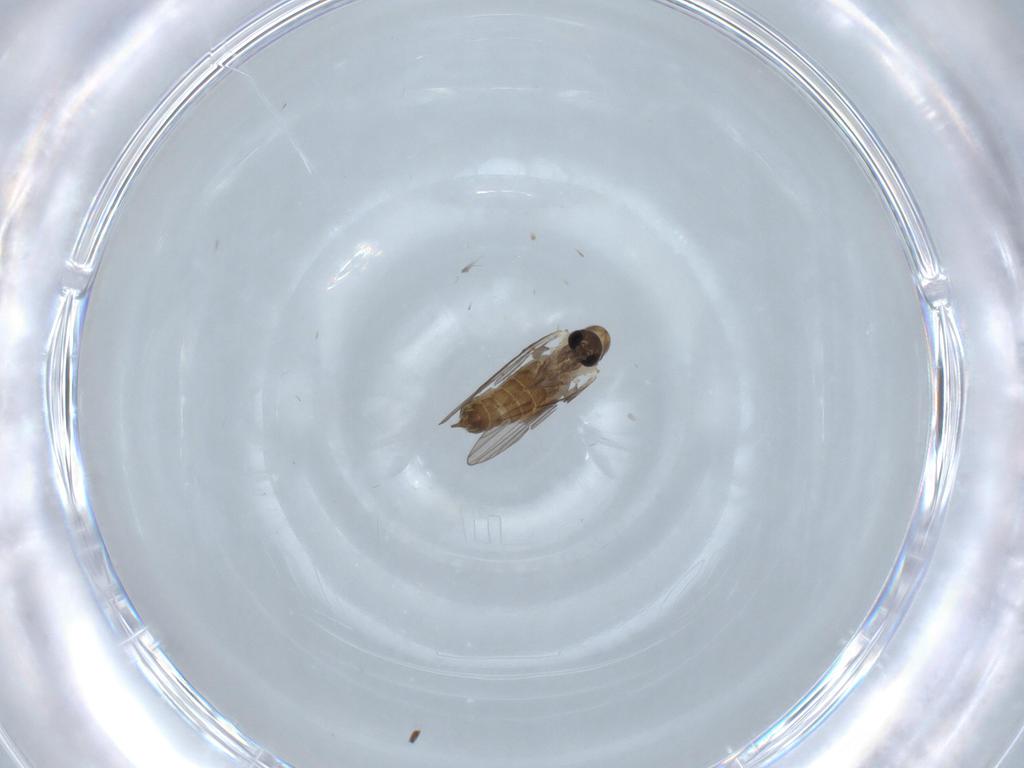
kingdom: Animalia
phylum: Arthropoda
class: Insecta
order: Diptera
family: Psychodidae
